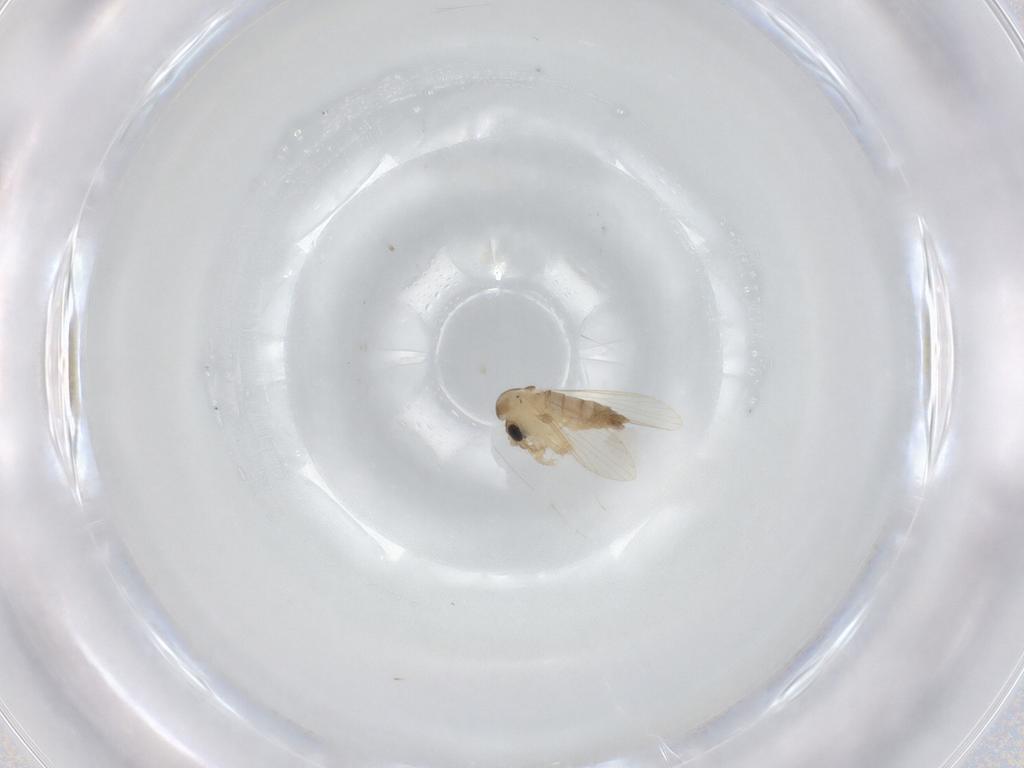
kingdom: Animalia
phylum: Arthropoda
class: Insecta
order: Diptera
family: Psychodidae
